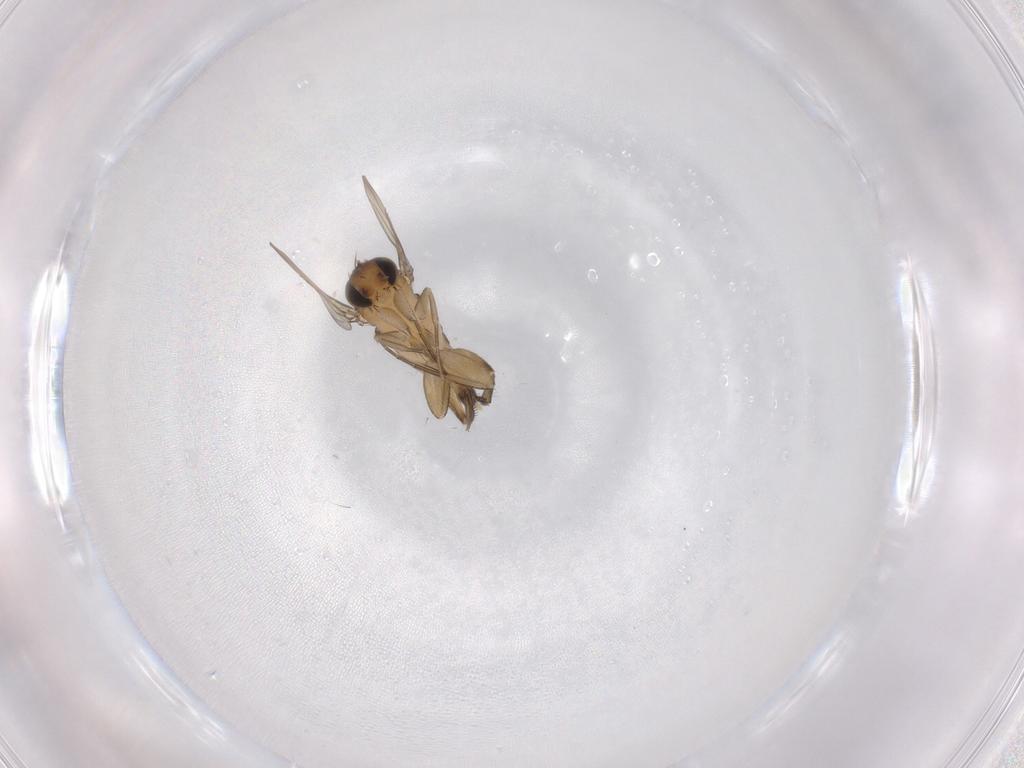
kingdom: Animalia
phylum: Arthropoda
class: Insecta
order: Diptera
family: Phoridae
